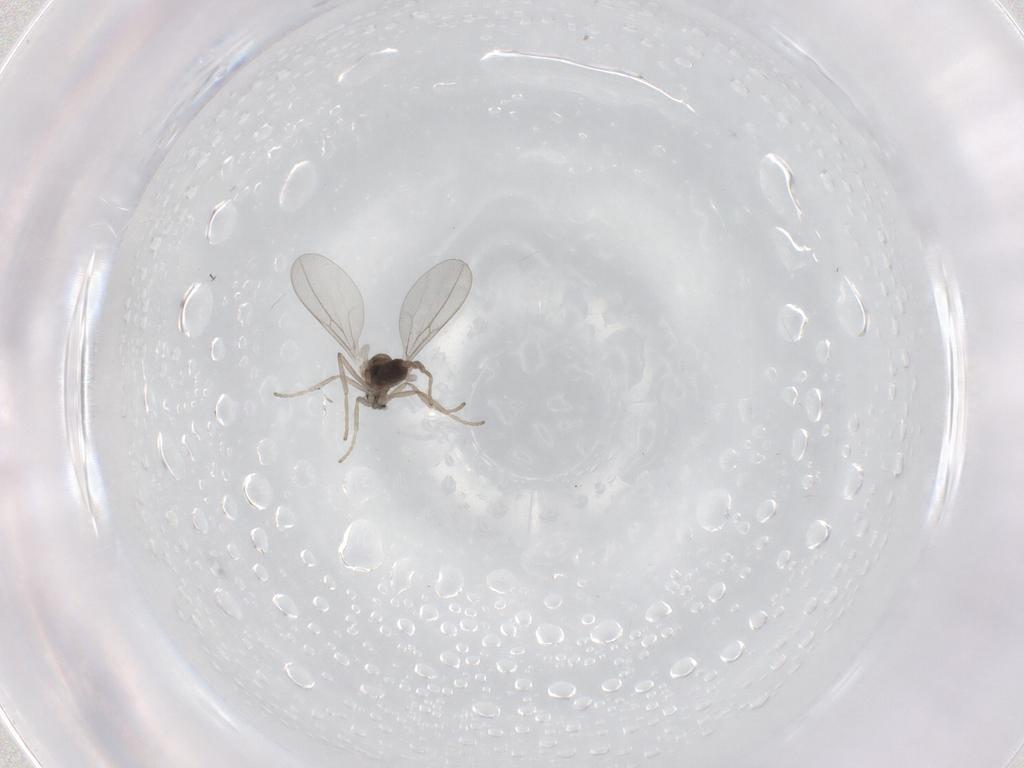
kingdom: Animalia
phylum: Arthropoda
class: Insecta
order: Diptera
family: Cecidomyiidae
